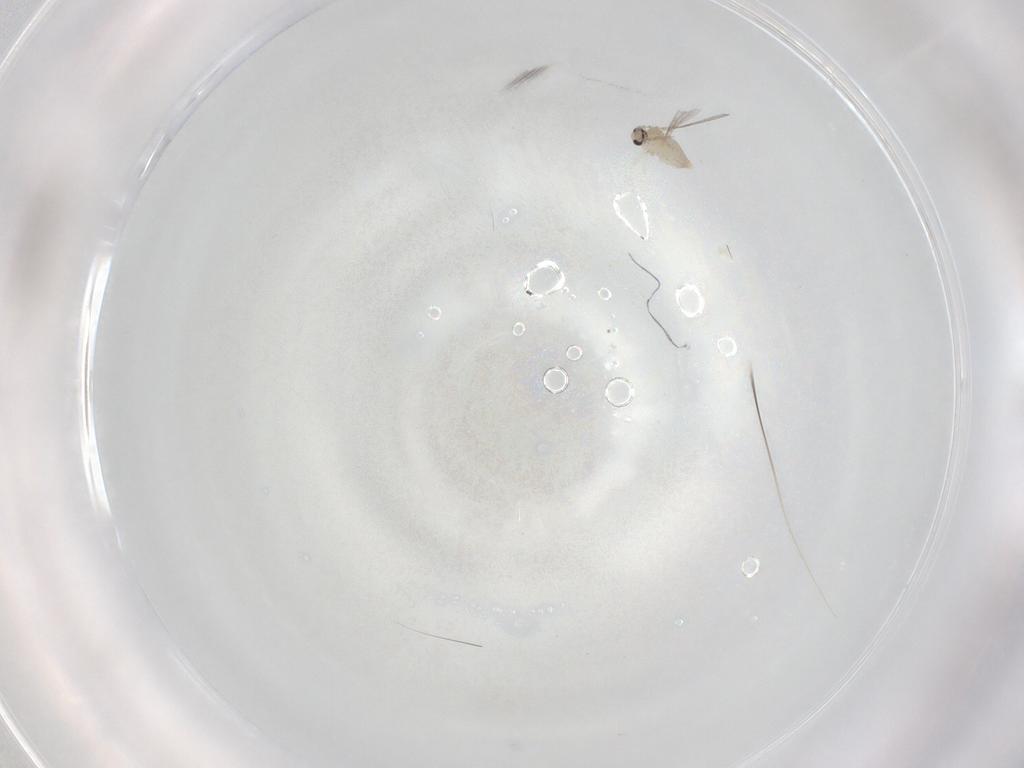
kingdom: Animalia
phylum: Arthropoda
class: Insecta
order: Diptera
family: Cecidomyiidae
